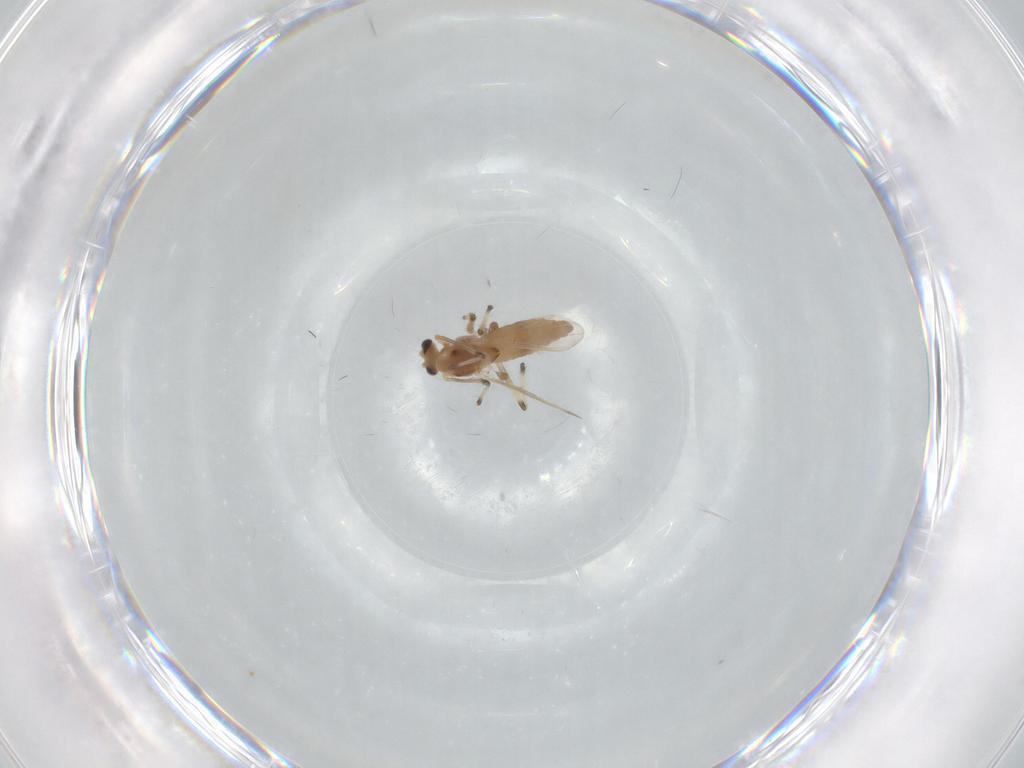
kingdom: Animalia
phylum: Arthropoda
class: Insecta
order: Diptera
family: Chironomidae
